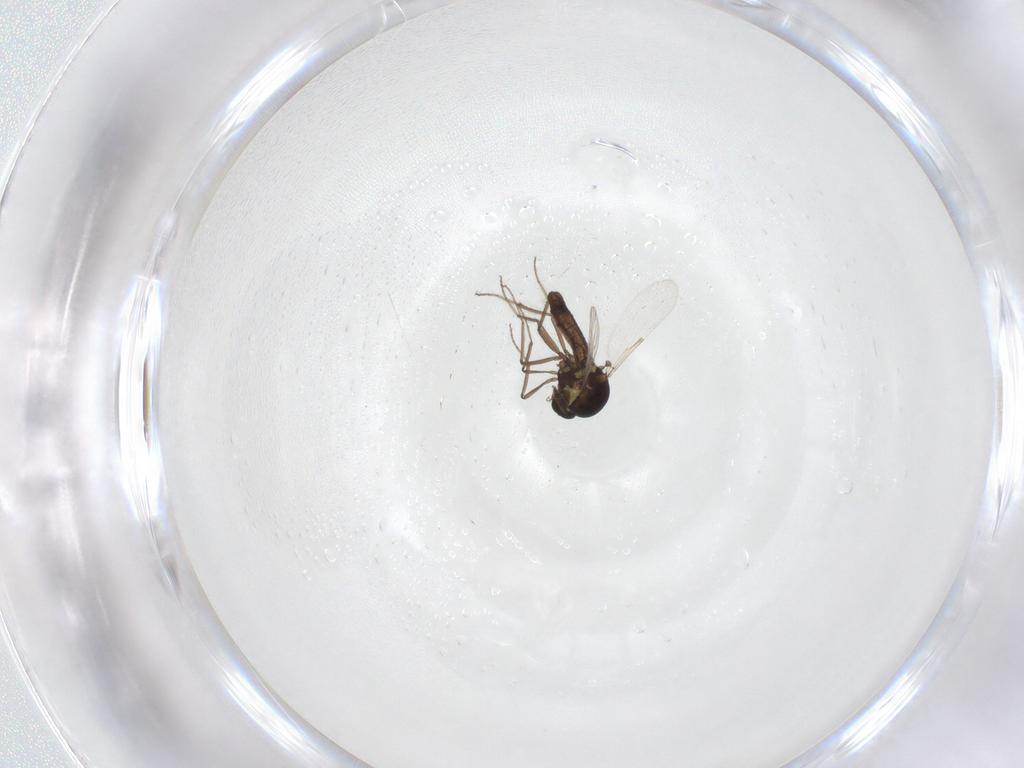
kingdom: Animalia
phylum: Arthropoda
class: Insecta
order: Diptera
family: Ceratopogonidae
